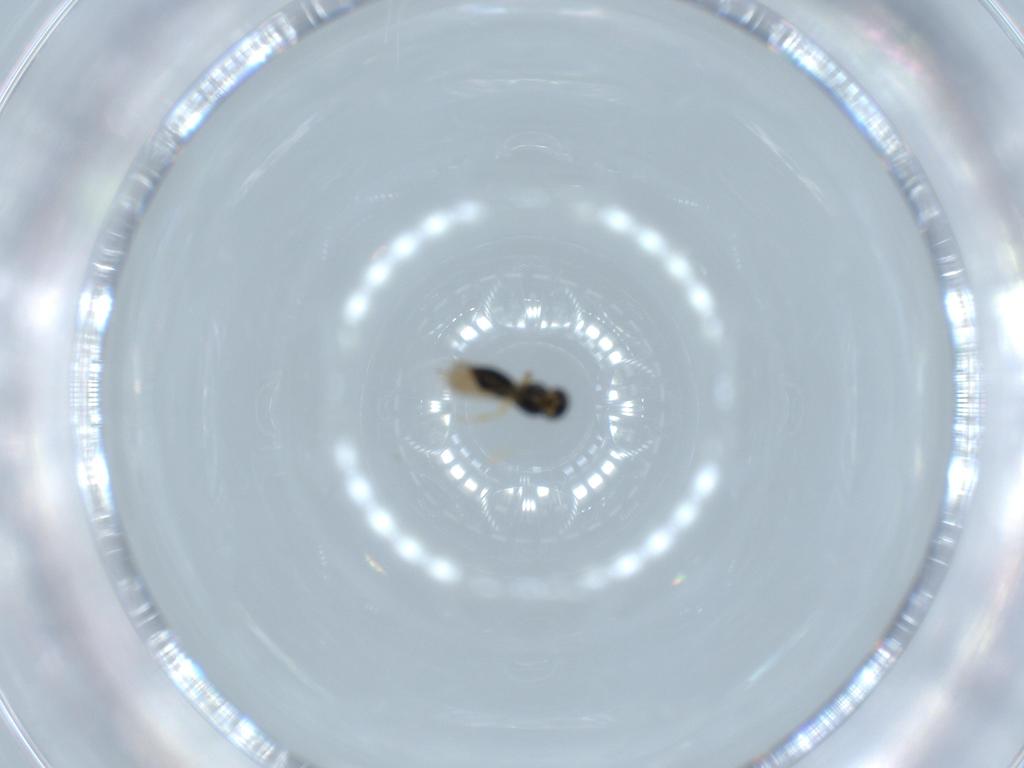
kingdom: Animalia
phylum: Arthropoda
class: Insecta
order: Hymenoptera
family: Scelionidae
